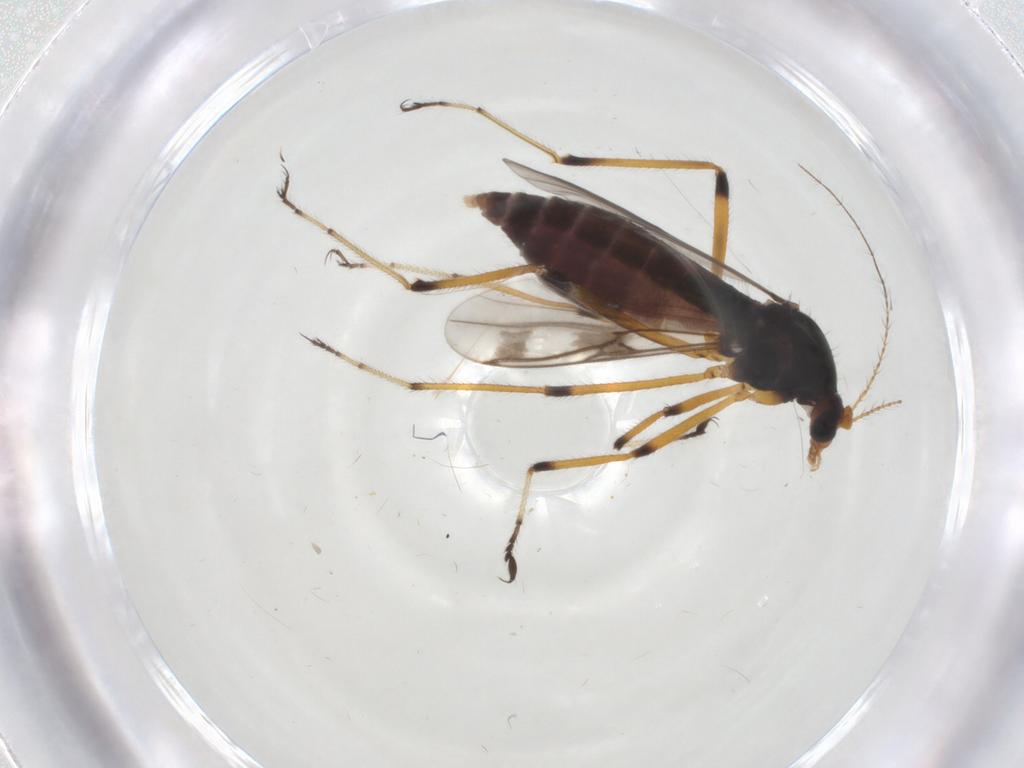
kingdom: Animalia
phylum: Arthropoda
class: Insecta
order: Diptera
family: Ceratopogonidae
